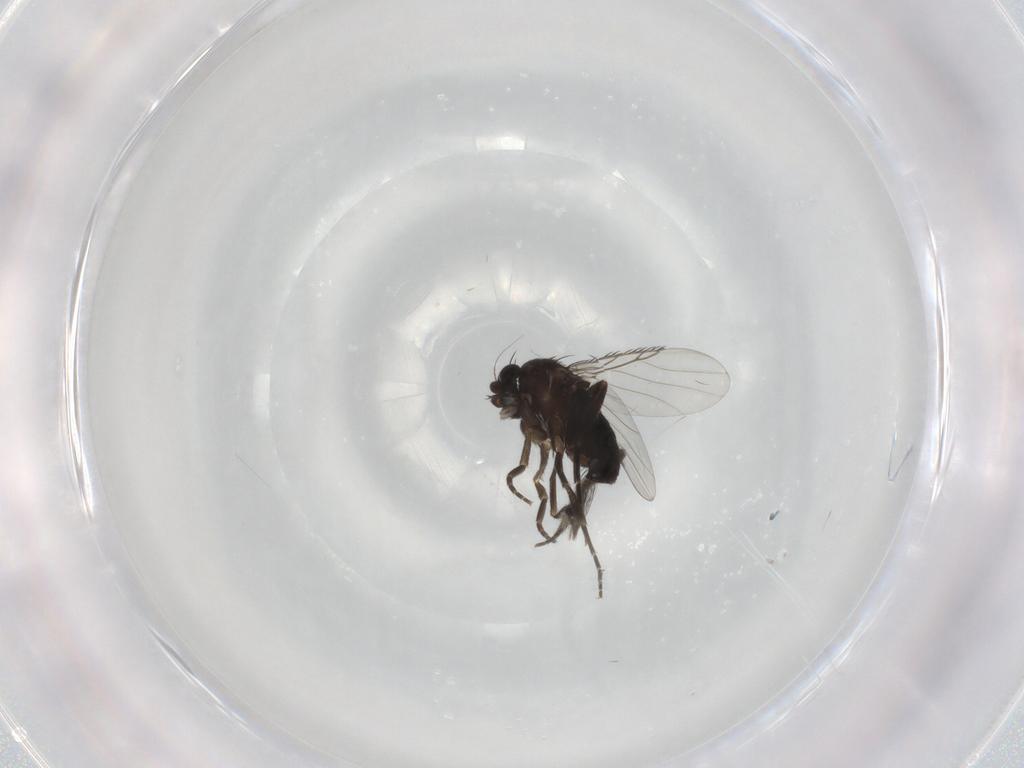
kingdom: Animalia
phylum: Arthropoda
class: Insecta
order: Diptera
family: Phoridae
